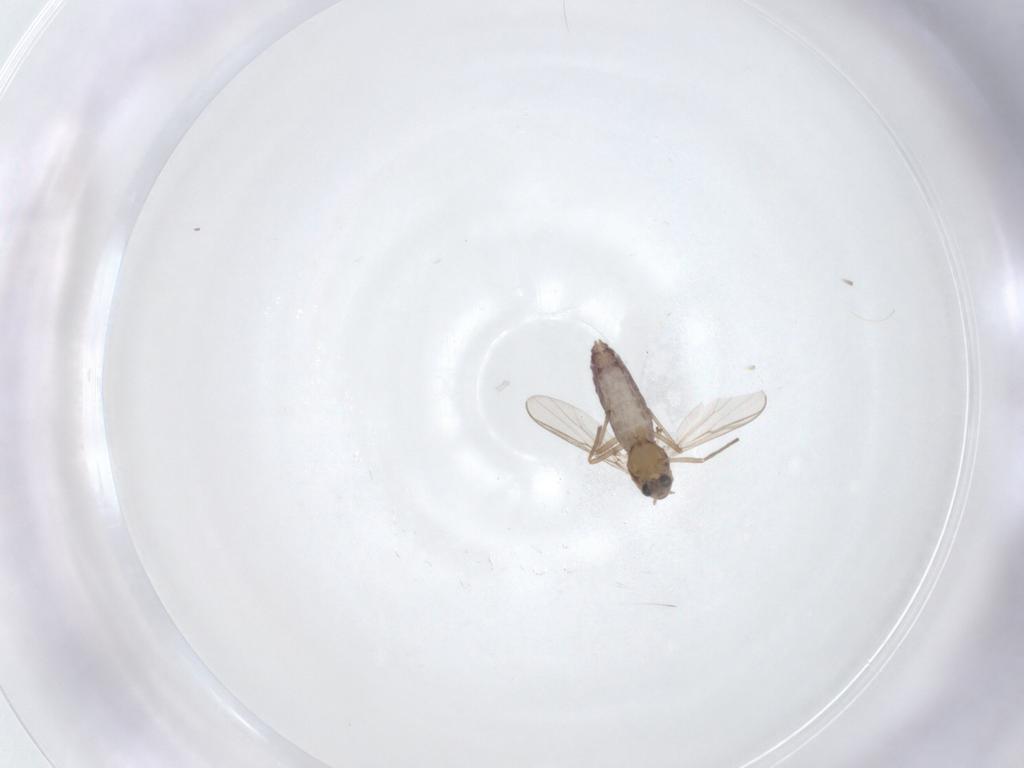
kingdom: Animalia
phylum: Arthropoda
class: Insecta
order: Diptera
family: Chironomidae
